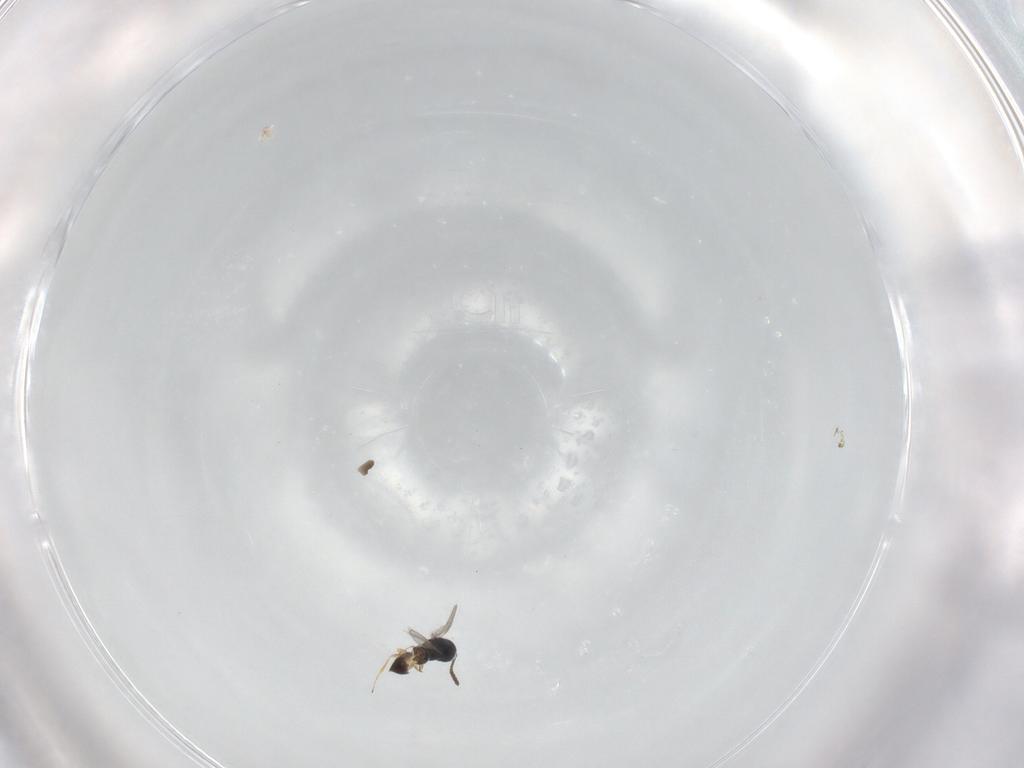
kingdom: Animalia
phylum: Arthropoda
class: Insecta
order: Hymenoptera
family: Scelionidae
